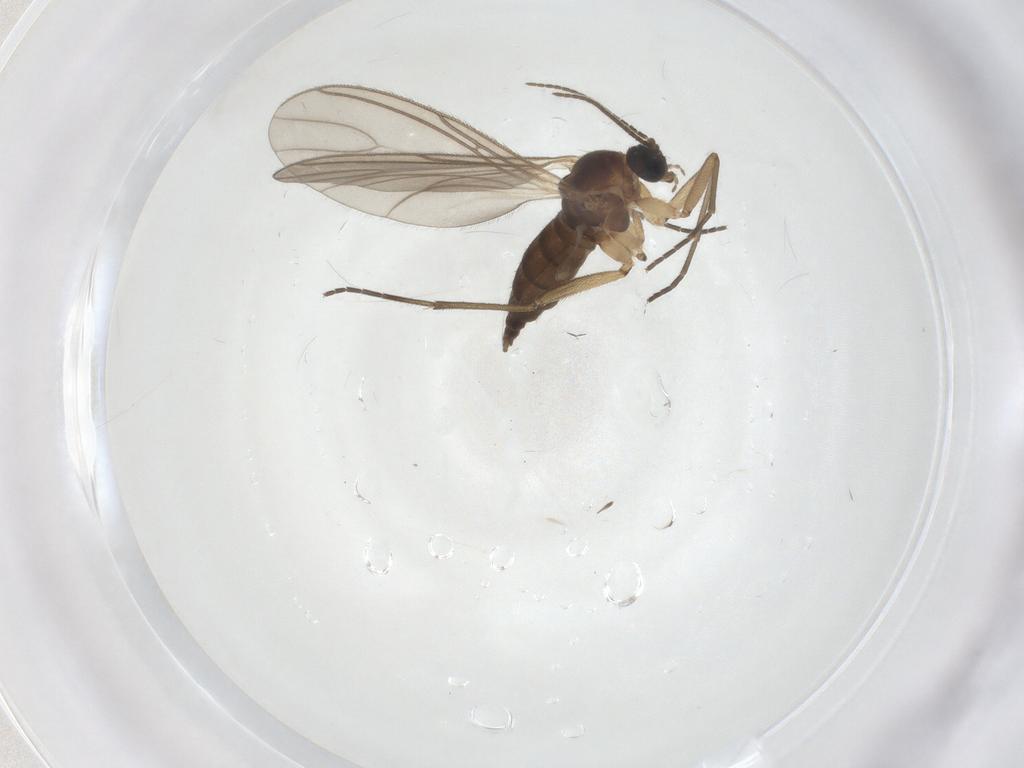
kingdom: Animalia
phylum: Arthropoda
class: Insecta
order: Diptera
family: Sciaridae
